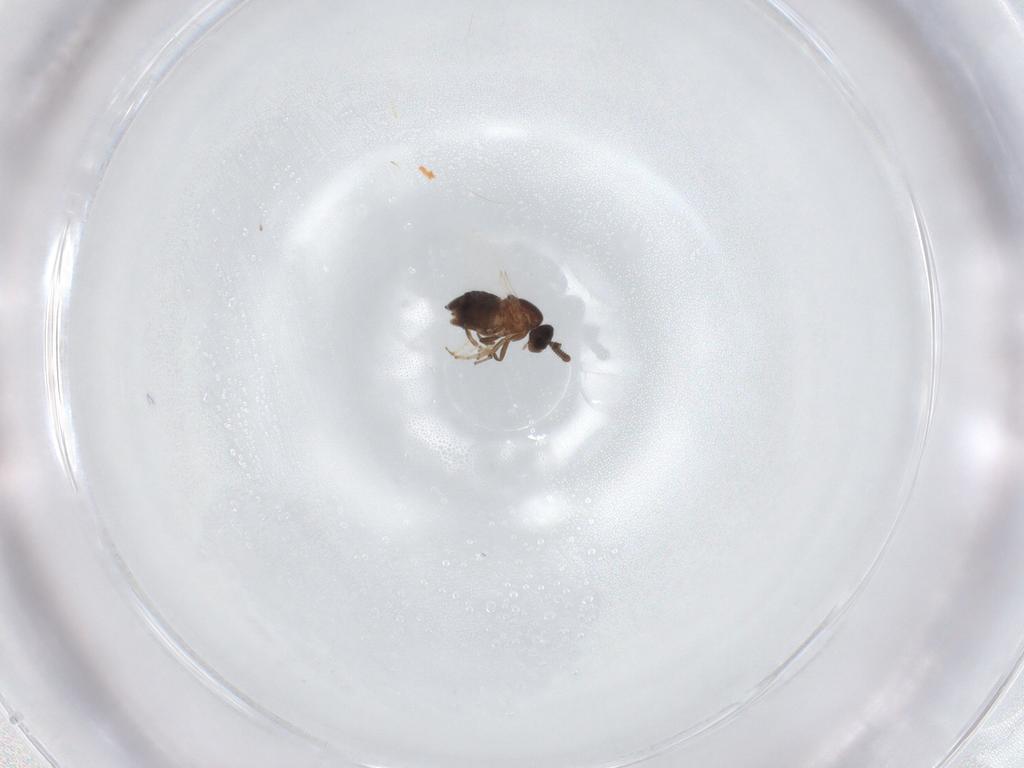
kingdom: Animalia
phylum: Arthropoda
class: Insecta
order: Diptera
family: Scatopsidae
